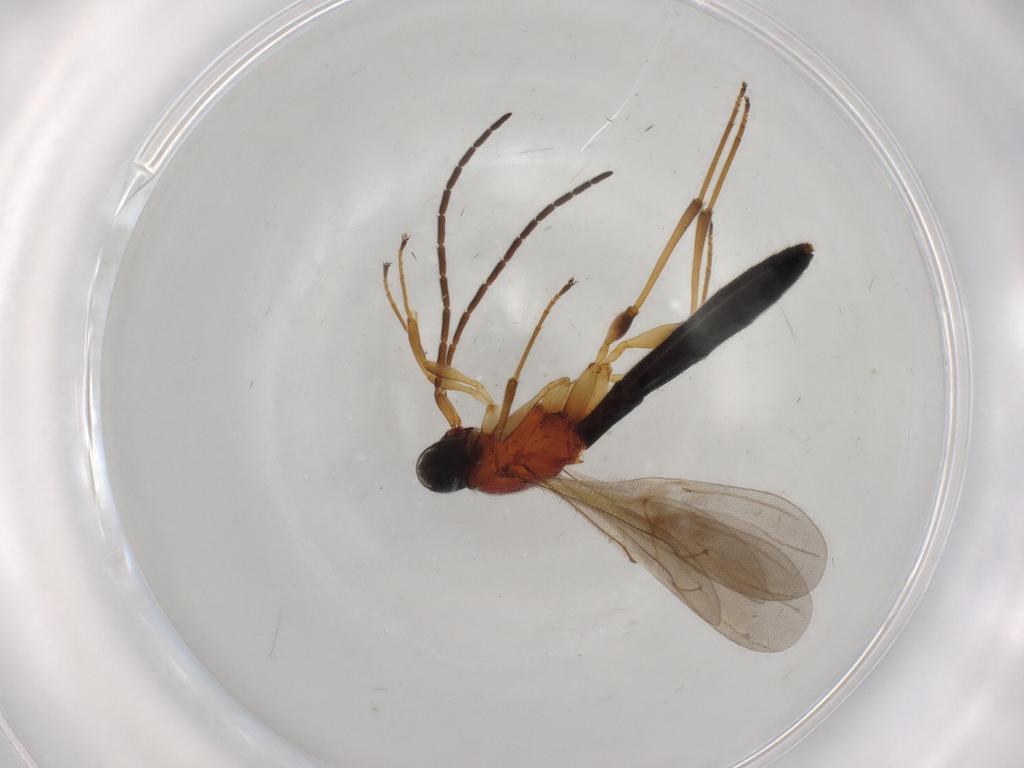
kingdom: Animalia
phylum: Arthropoda
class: Insecta
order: Hymenoptera
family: Scelionidae
